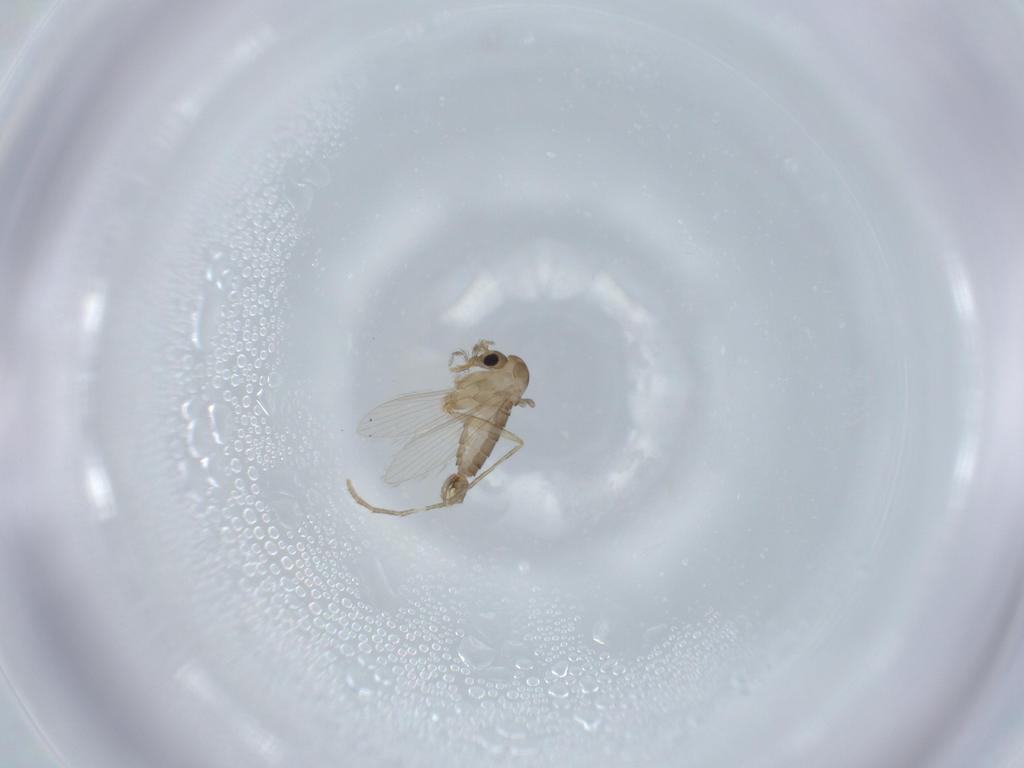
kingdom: Animalia
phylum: Arthropoda
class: Insecta
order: Diptera
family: Psychodidae
